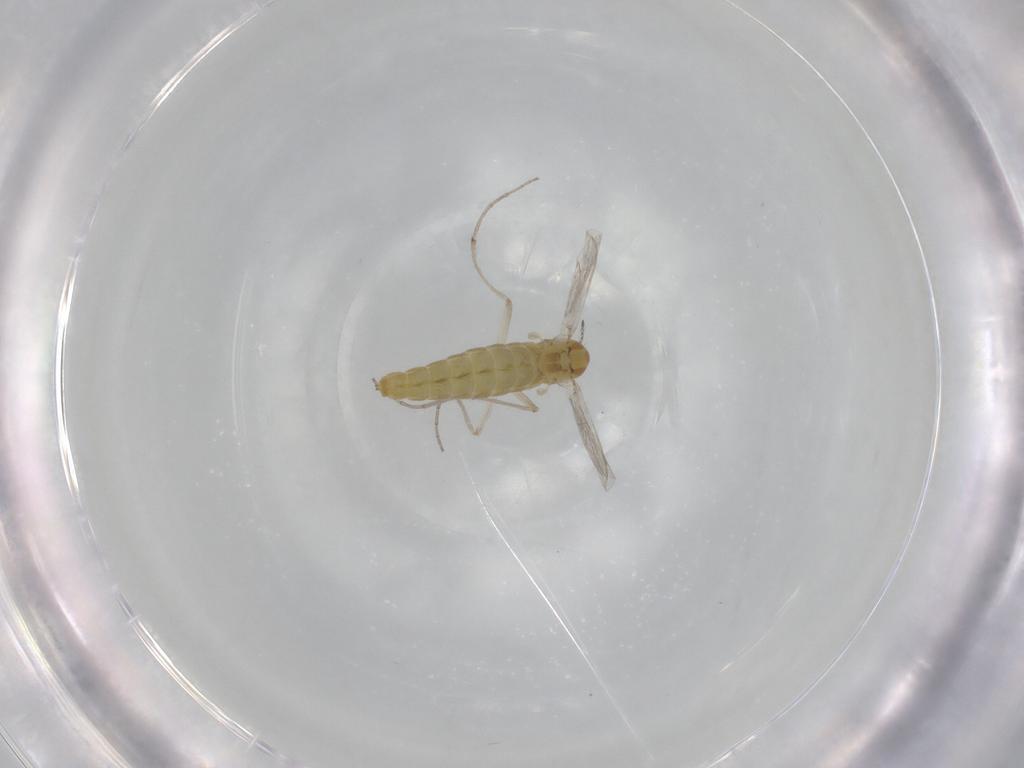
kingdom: Animalia
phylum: Arthropoda
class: Insecta
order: Diptera
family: Chironomidae
